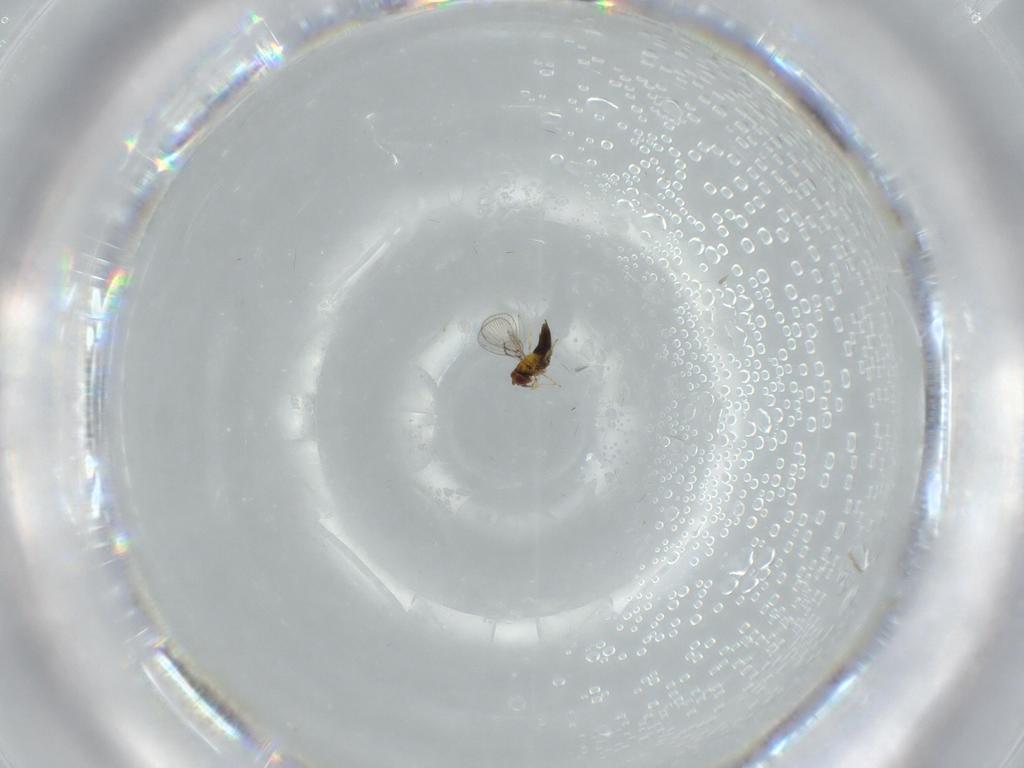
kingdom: Animalia
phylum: Arthropoda
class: Insecta
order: Hymenoptera
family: Trichogrammatidae
